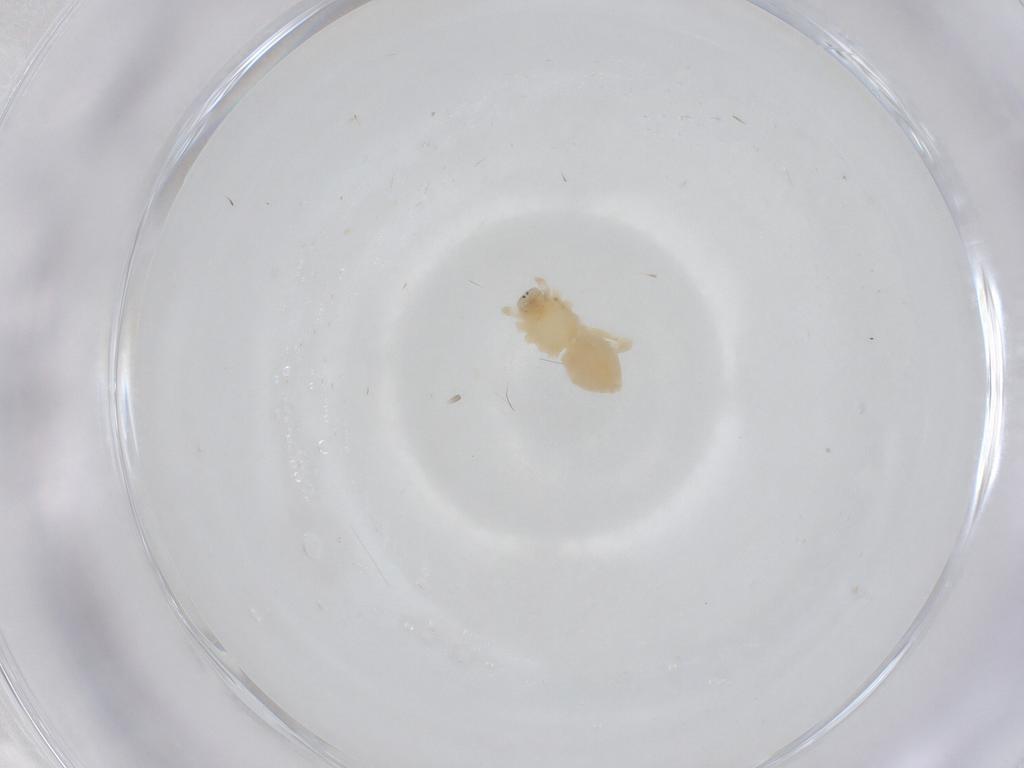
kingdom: Animalia
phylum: Arthropoda
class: Arachnida
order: Araneae
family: Anyphaenidae
